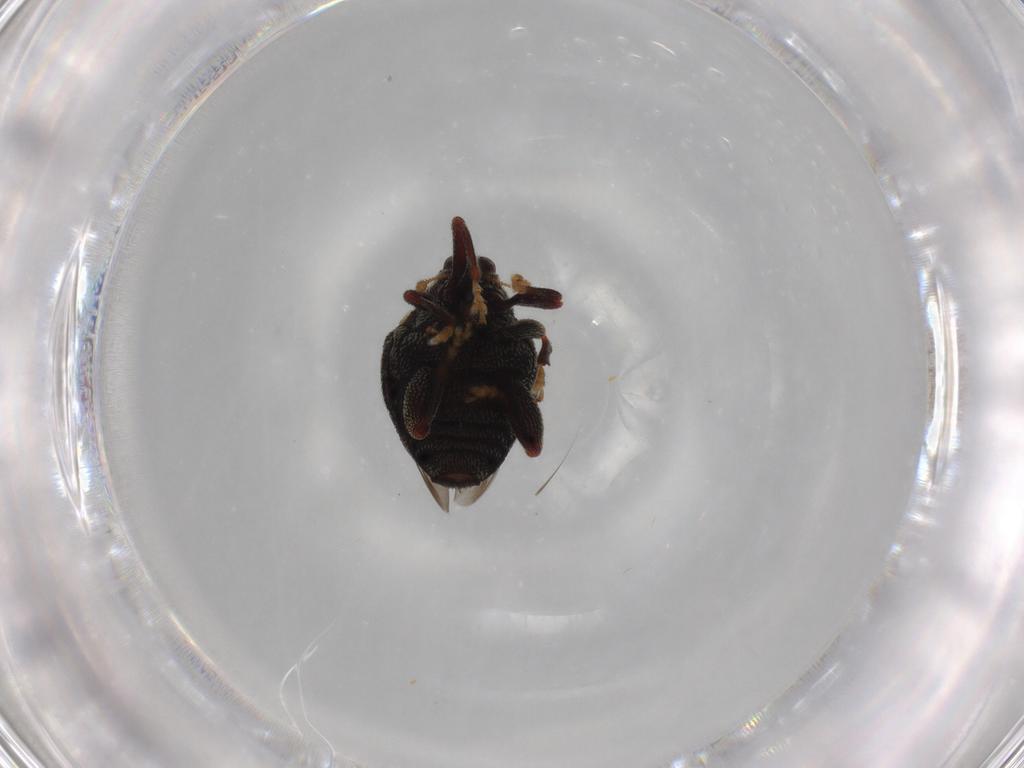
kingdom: Animalia
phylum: Arthropoda
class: Insecta
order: Coleoptera
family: Curculionidae
